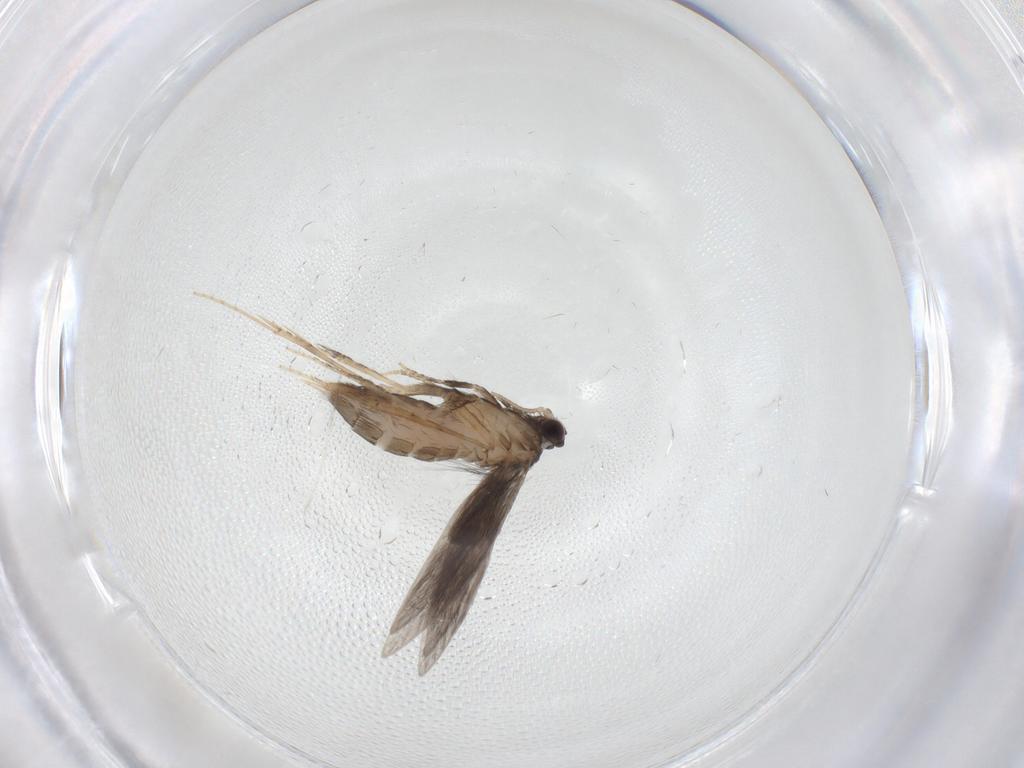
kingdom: Animalia
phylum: Arthropoda
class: Insecta
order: Trichoptera
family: Hydroptilidae
